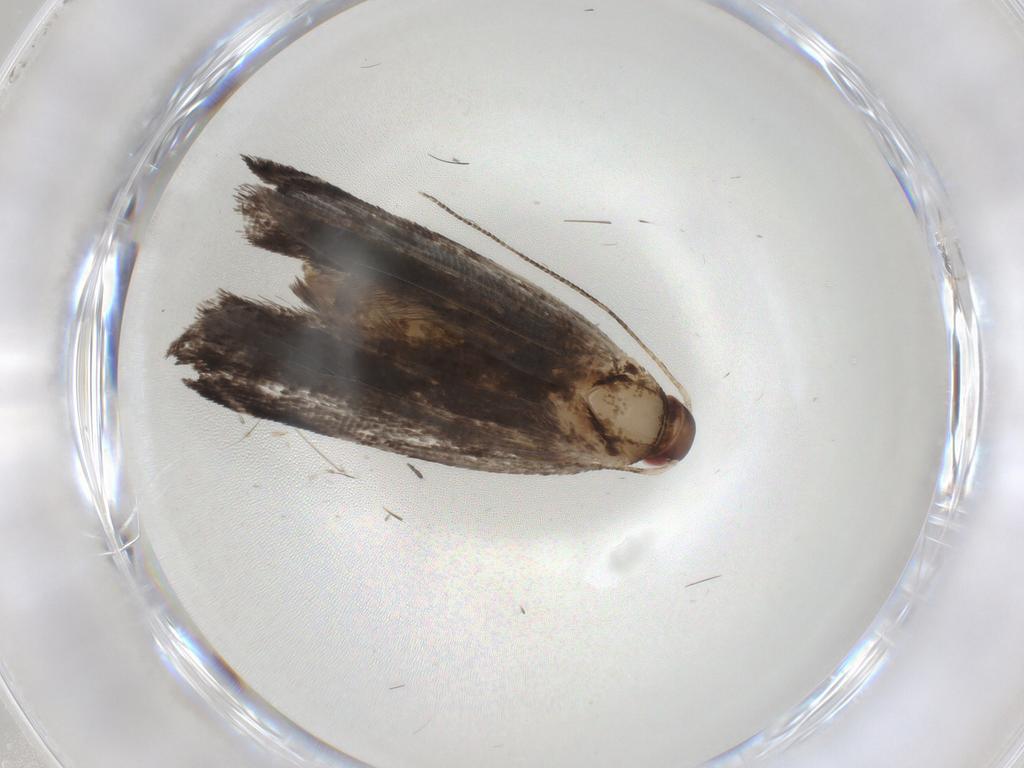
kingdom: Animalia
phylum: Arthropoda
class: Insecta
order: Lepidoptera
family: Gelechiidae
